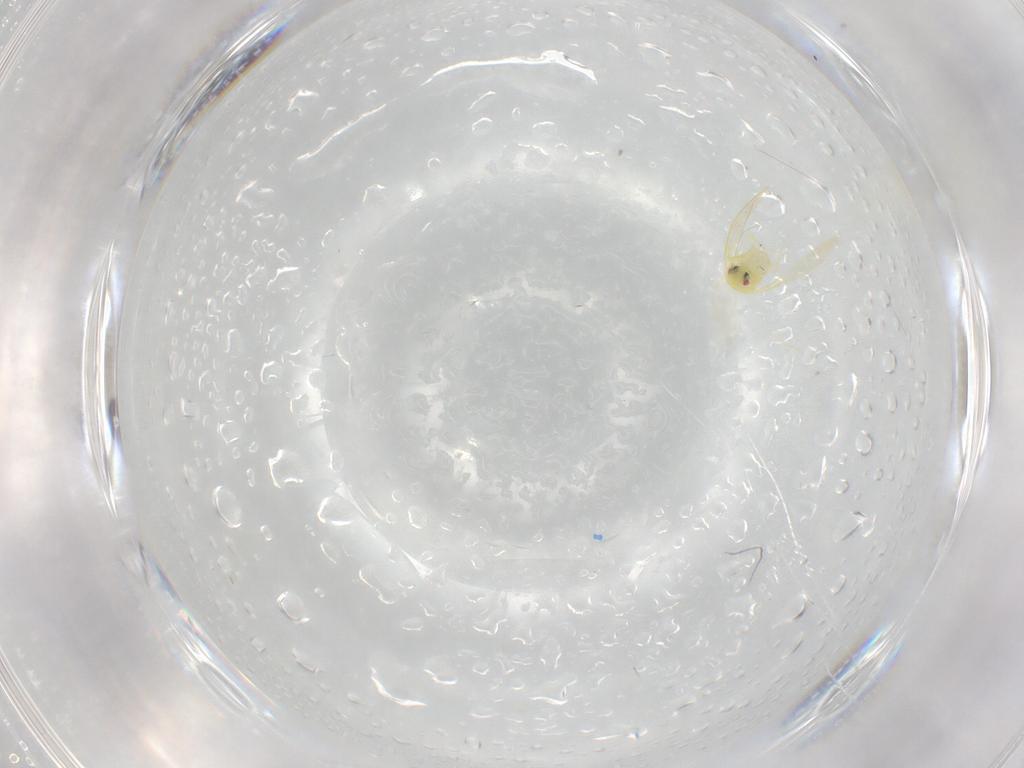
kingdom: Animalia
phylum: Arthropoda
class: Insecta
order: Hemiptera
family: Aleyrodidae
